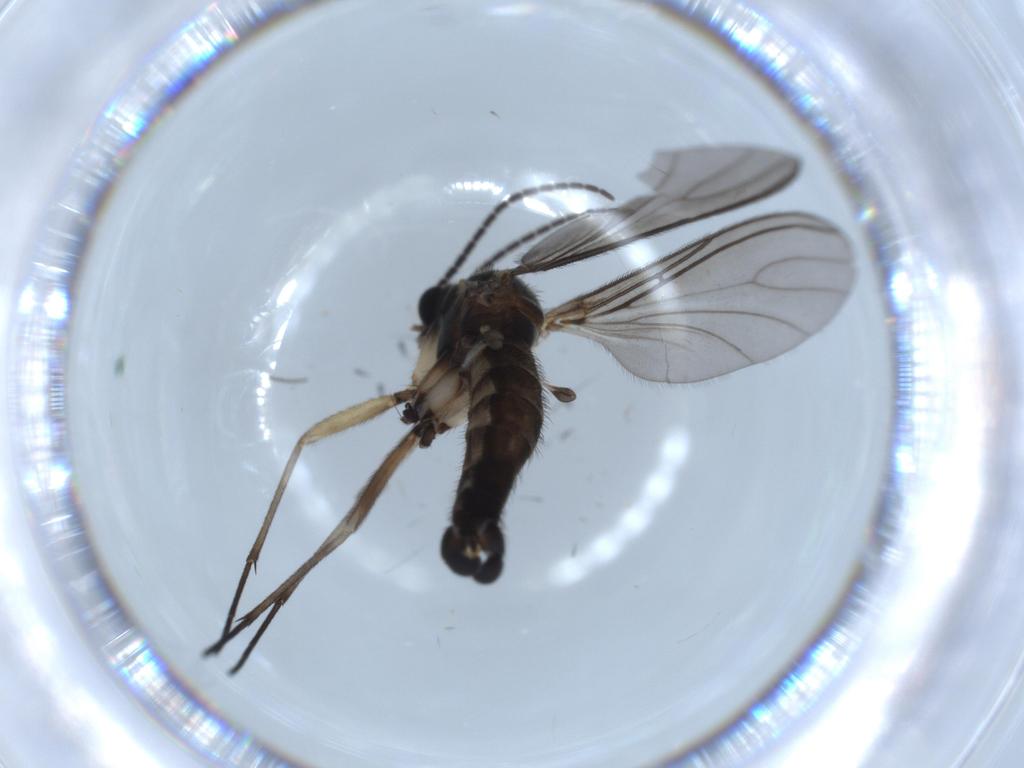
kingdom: Animalia
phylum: Arthropoda
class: Insecta
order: Diptera
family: Sciaridae
